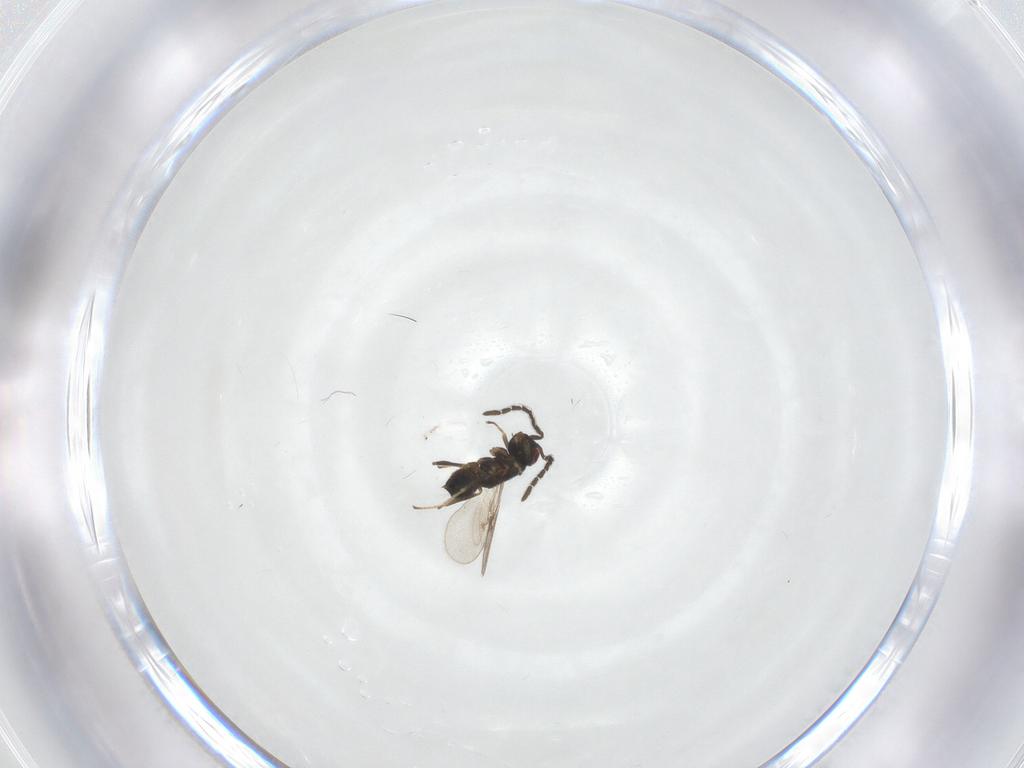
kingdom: Animalia
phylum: Arthropoda
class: Insecta
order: Hymenoptera
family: Encyrtidae
